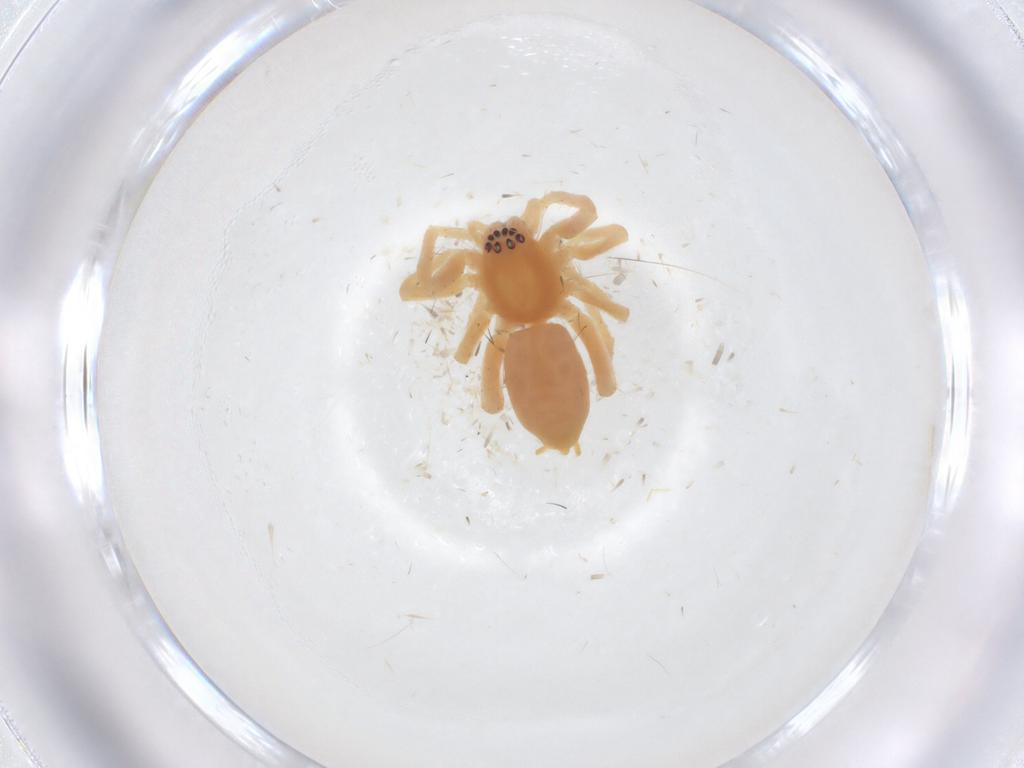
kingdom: Animalia
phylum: Arthropoda
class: Arachnida
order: Araneae
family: Anyphaenidae
